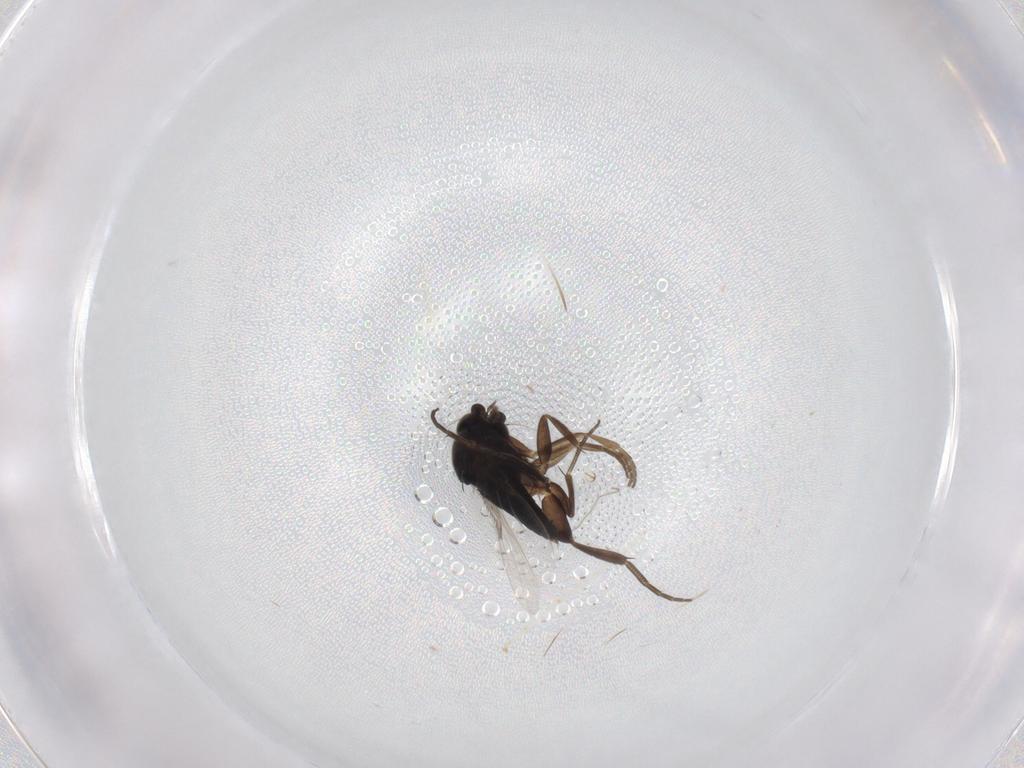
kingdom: Animalia
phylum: Arthropoda
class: Insecta
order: Diptera
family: Phoridae
